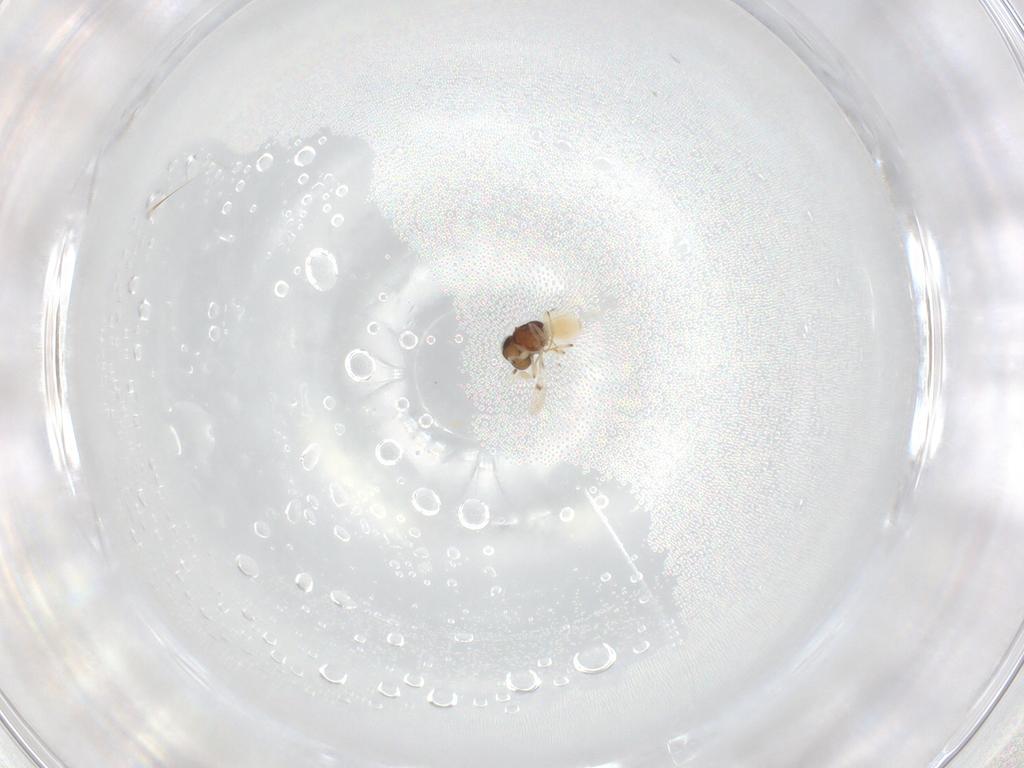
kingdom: Animalia
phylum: Arthropoda
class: Insecta
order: Hymenoptera
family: Scelionidae
